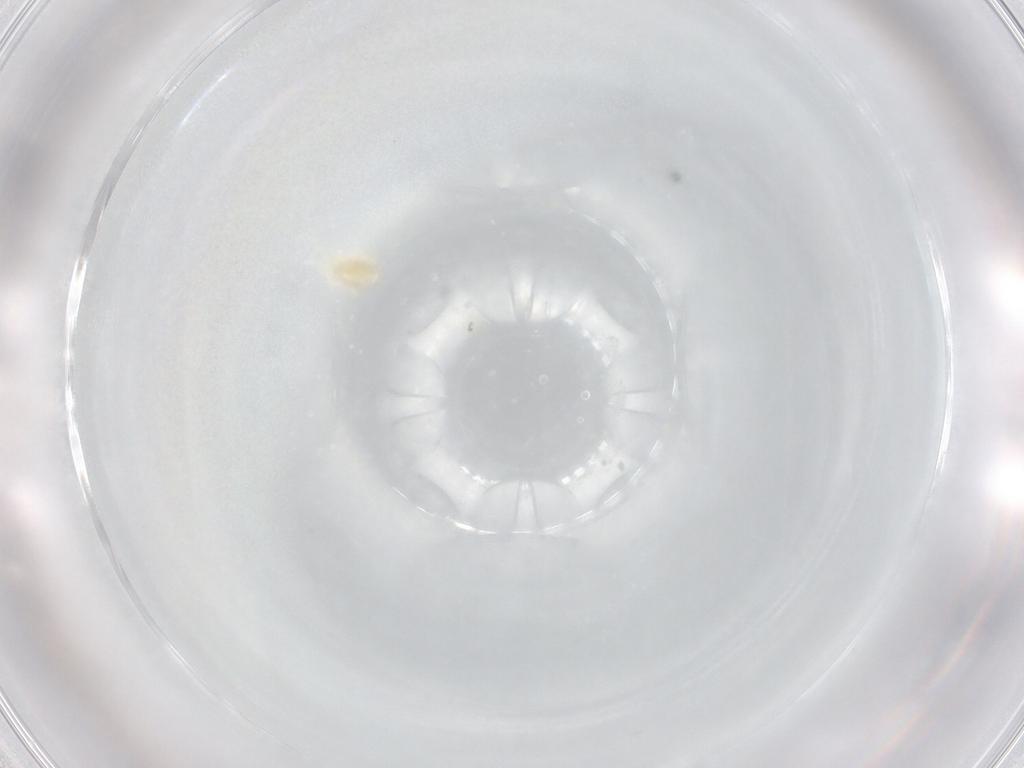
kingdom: Animalia
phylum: Arthropoda
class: Arachnida
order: Trombidiformes
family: Eupodidae
